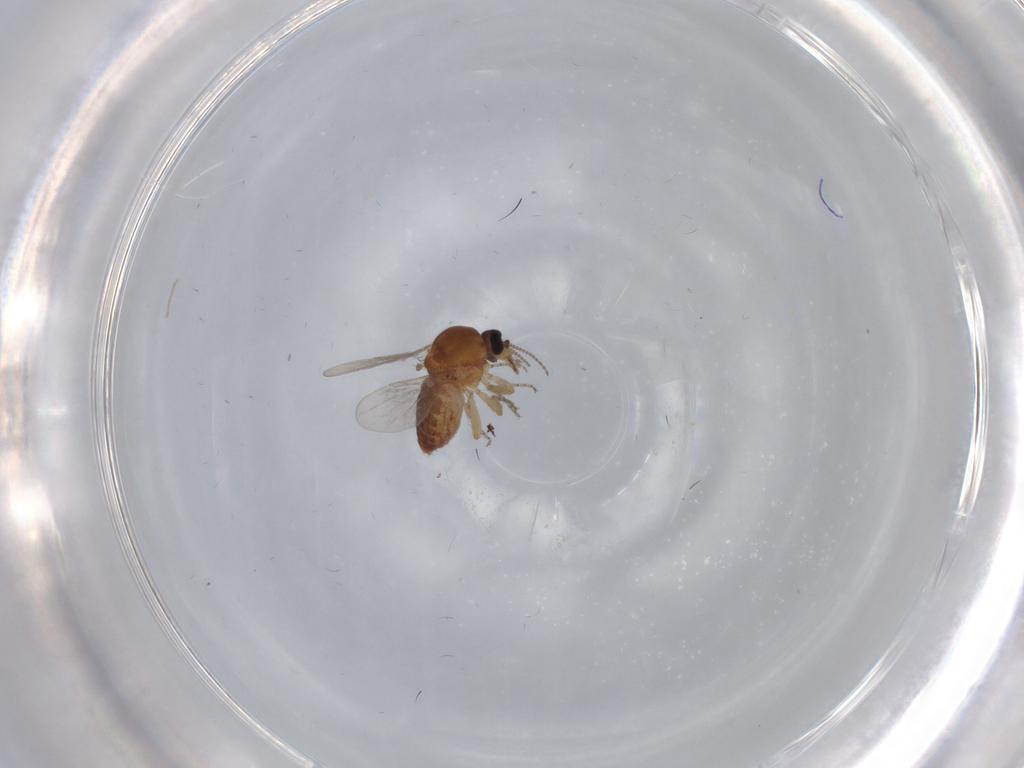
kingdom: Animalia
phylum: Arthropoda
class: Insecta
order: Diptera
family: Ceratopogonidae
